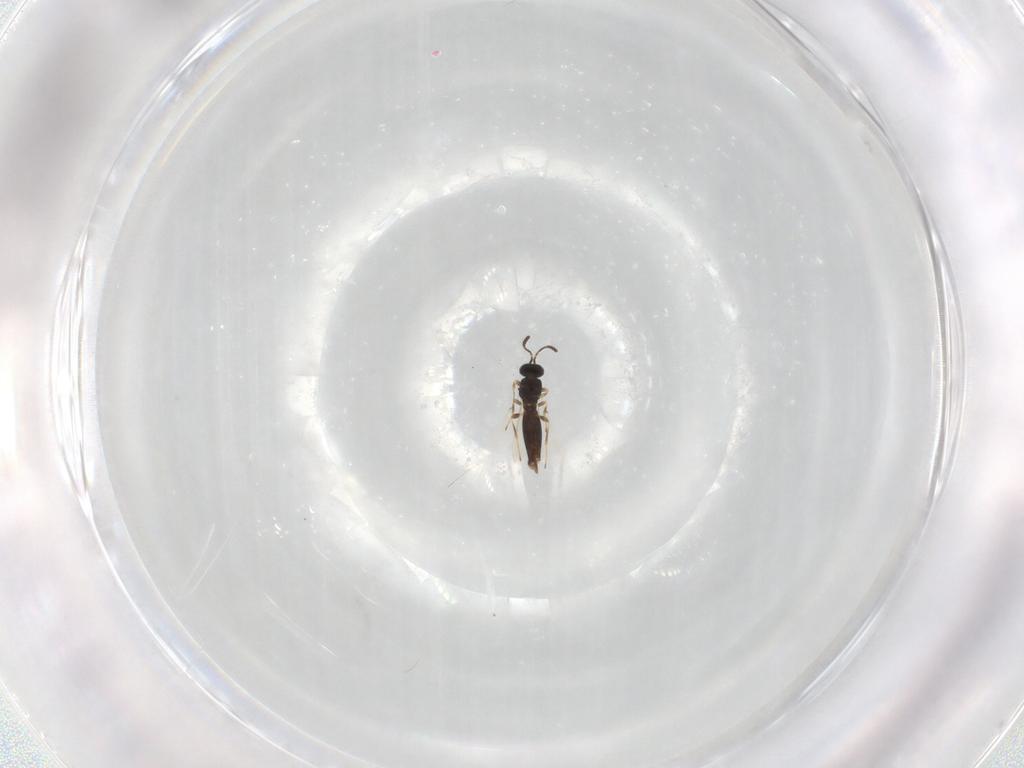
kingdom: Animalia
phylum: Arthropoda
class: Insecta
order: Hymenoptera
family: Scelionidae
